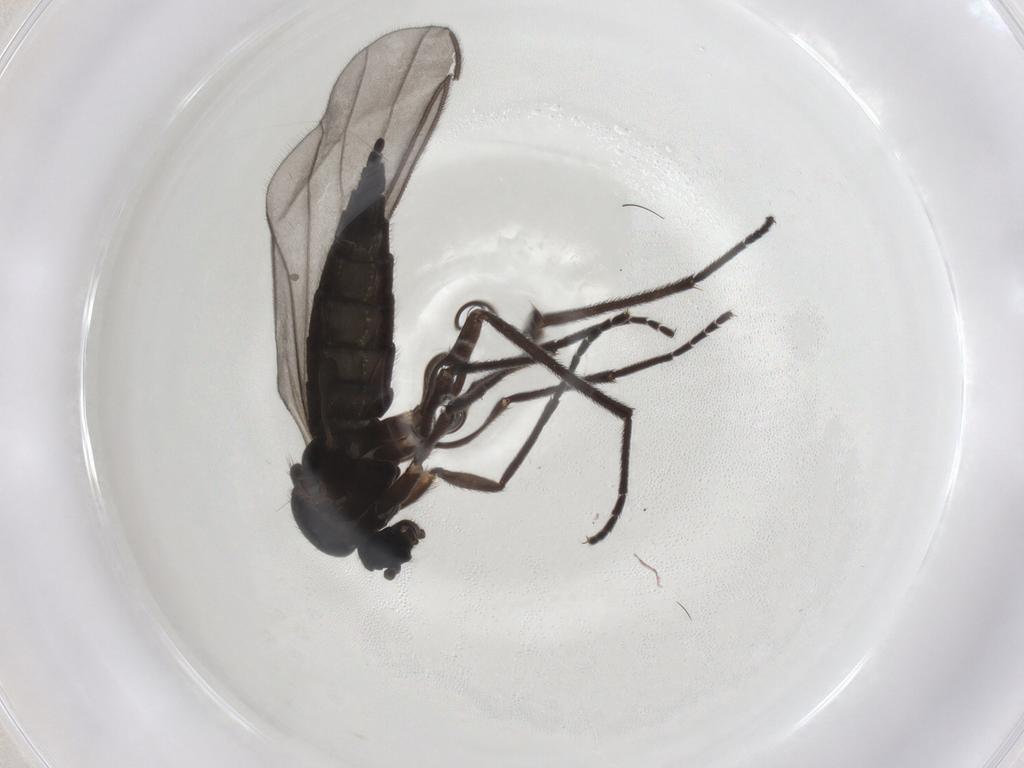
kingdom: Animalia
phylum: Arthropoda
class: Insecta
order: Diptera
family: Sciaridae
